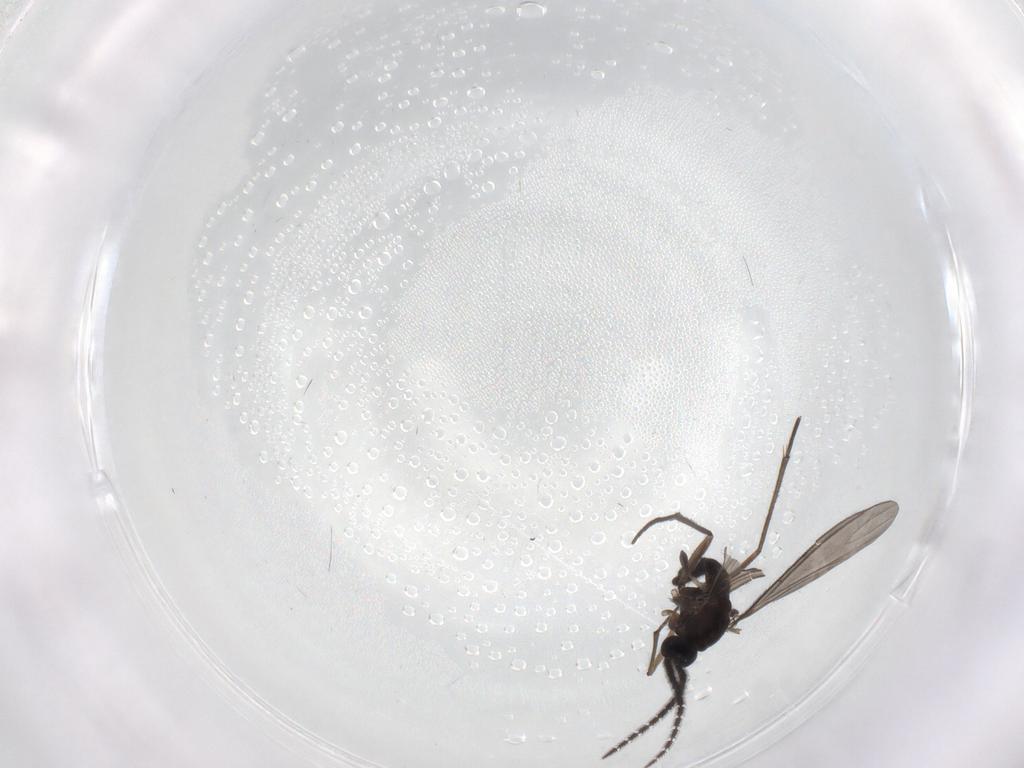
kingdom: Animalia
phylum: Arthropoda
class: Insecta
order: Diptera
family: Sciaridae
